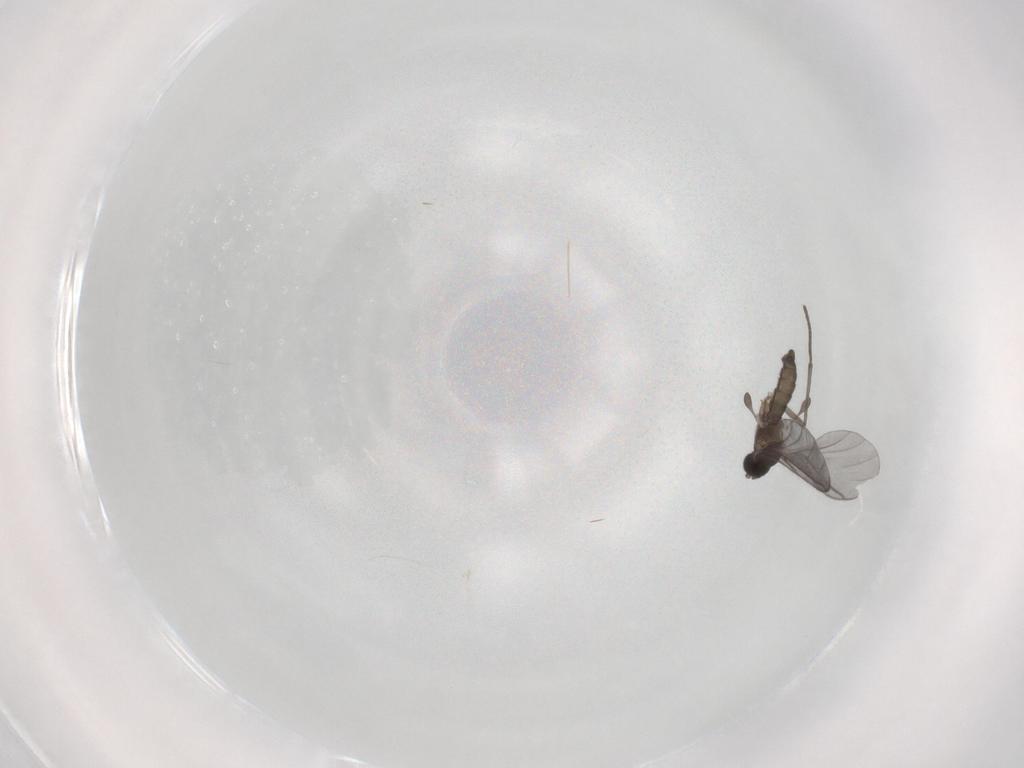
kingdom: Animalia
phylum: Arthropoda
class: Insecta
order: Diptera
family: Sciaridae
